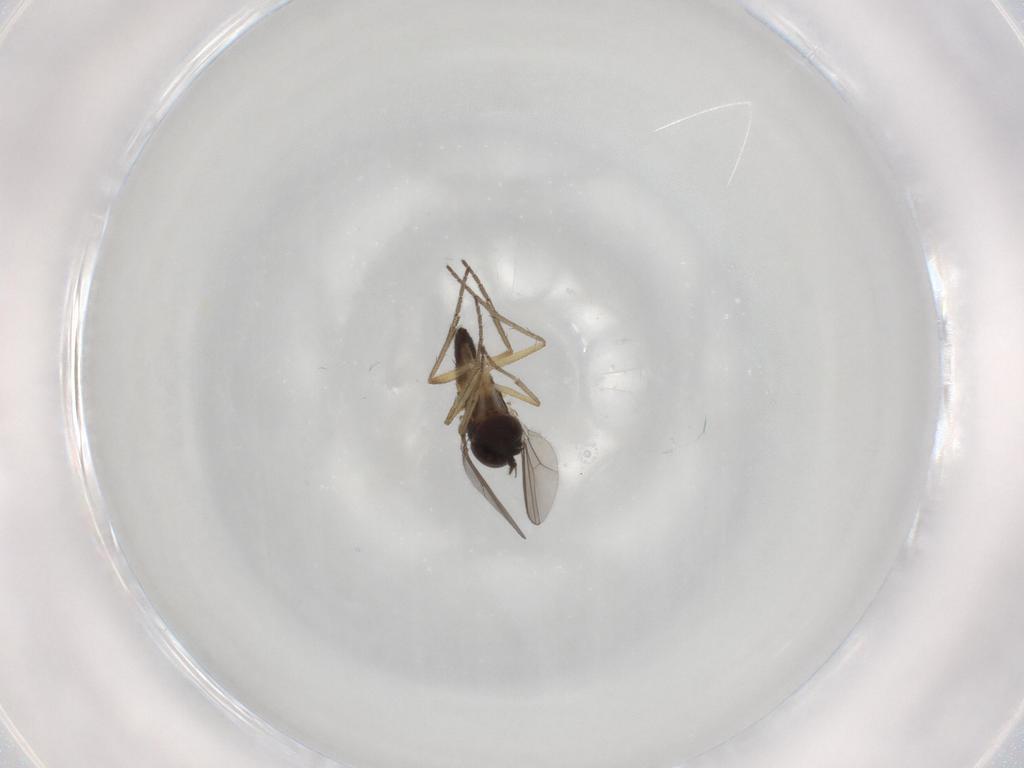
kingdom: Animalia
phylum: Arthropoda
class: Insecta
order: Diptera
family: Dolichopodidae
